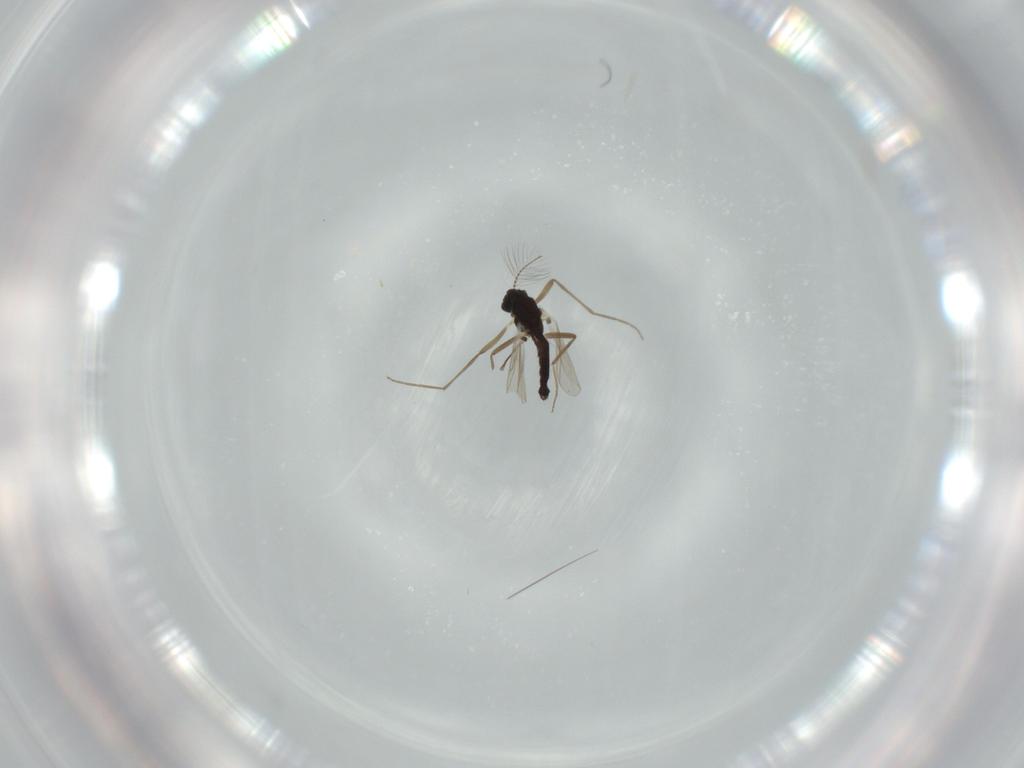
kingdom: Animalia
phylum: Arthropoda
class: Insecta
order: Diptera
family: Chironomidae
